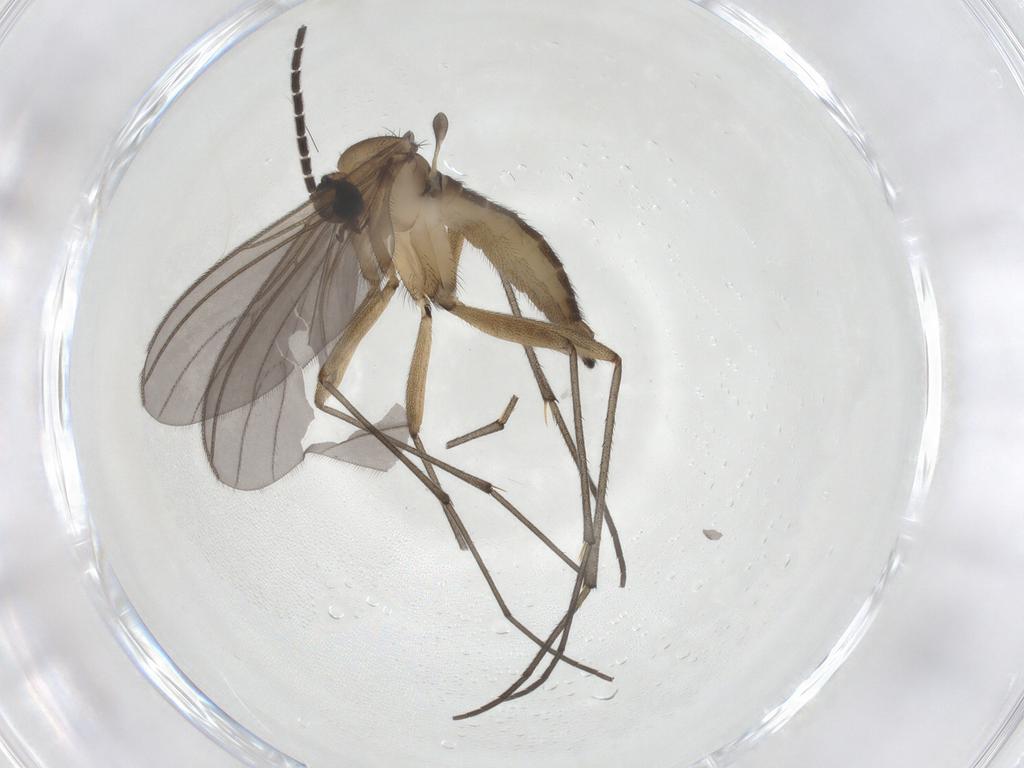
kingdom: Animalia
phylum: Arthropoda
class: Insecta
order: Diptera
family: Sciaridae
